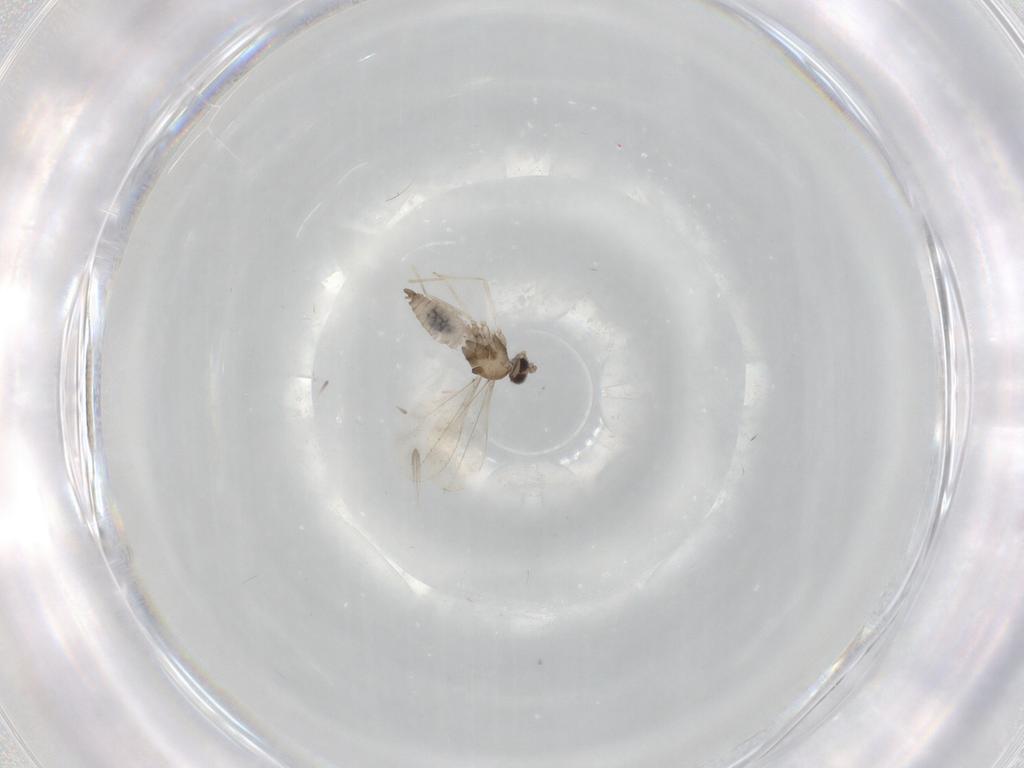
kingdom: Animalia
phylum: Arthropoda
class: Insecta
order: Diptera
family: Cecidomyiidae
